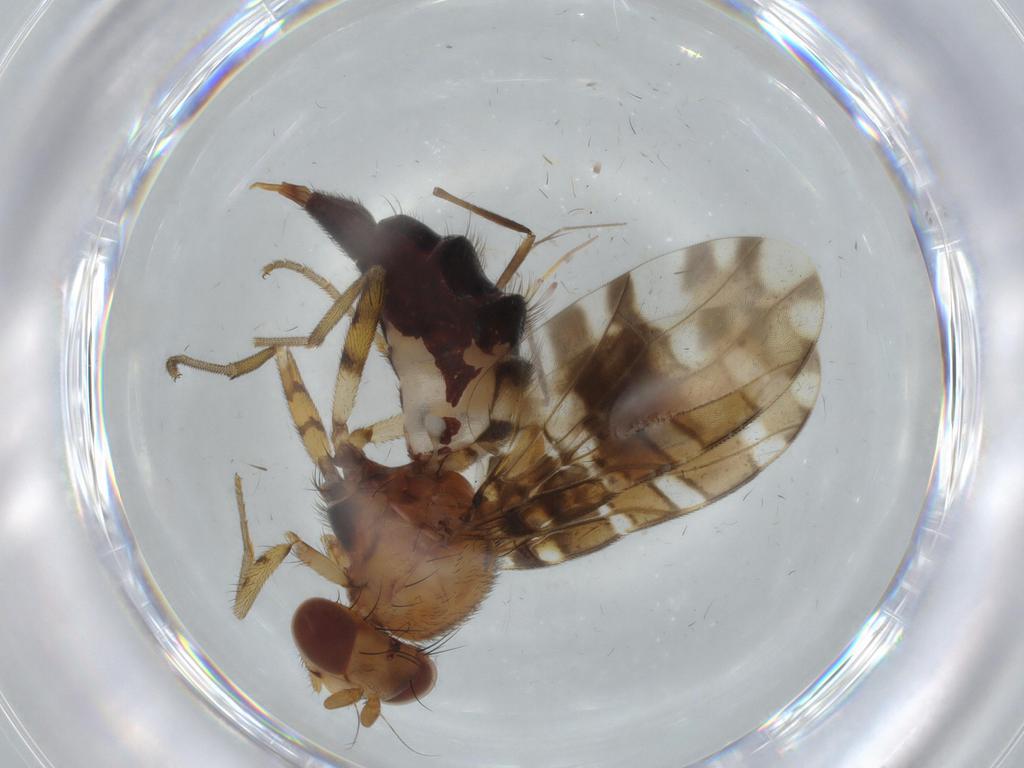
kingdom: Animalia
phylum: Arthropoda
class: Insecta
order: Diptera
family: Ulidiidae
